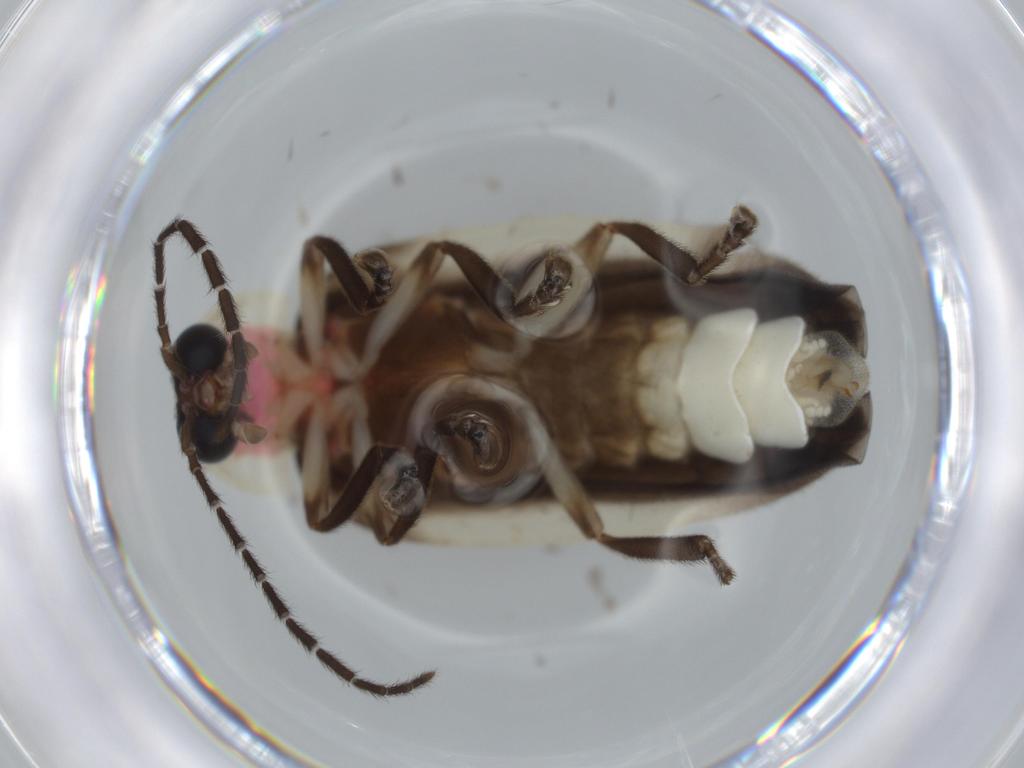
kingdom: Animalia
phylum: Arthropoda
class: Insecta
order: Coleoptera
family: Lampyridae
